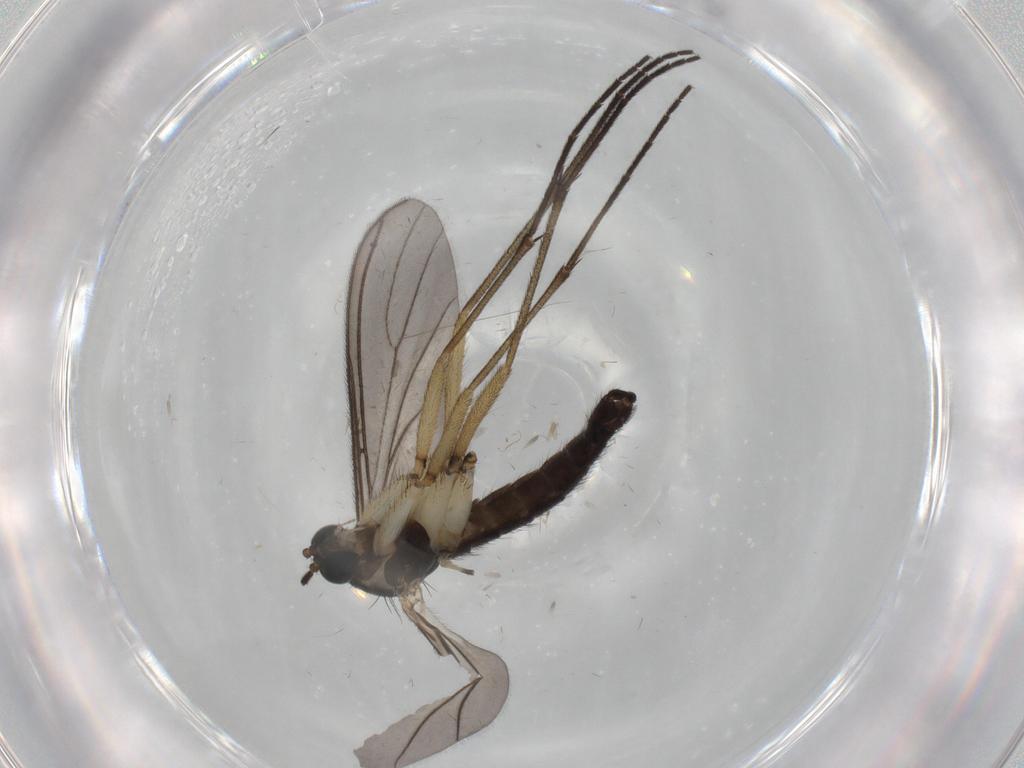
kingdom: Animalia
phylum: Arthropoda
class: Insecta
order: Diptera
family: Sciaridae
